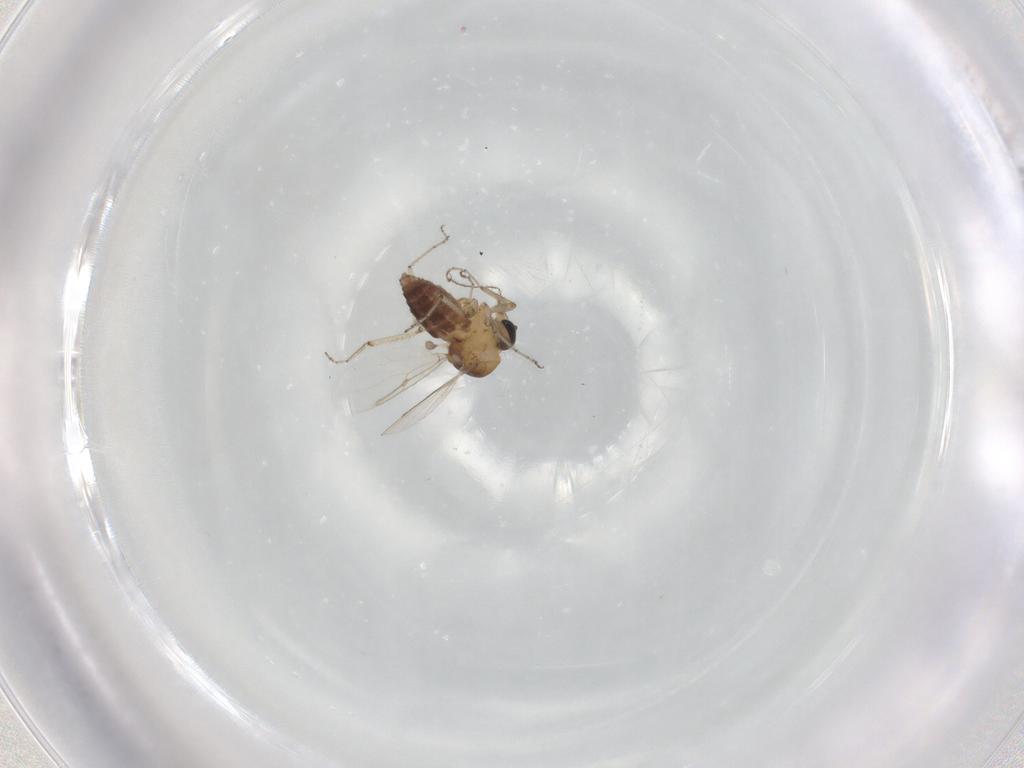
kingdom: Animalia
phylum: Arthropoda
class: Insecta
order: Diptera
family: Ceratopogonidae
